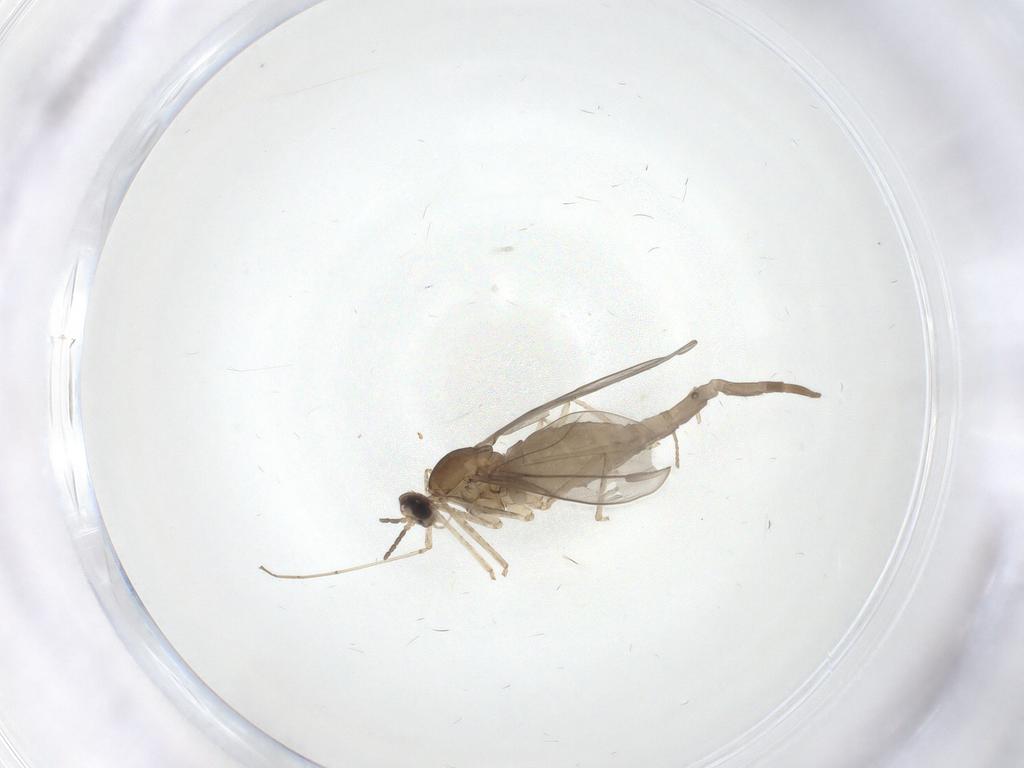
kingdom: Animalia
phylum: Arthropoda
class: Insecta
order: Diptera
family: Cecidomyiidae
